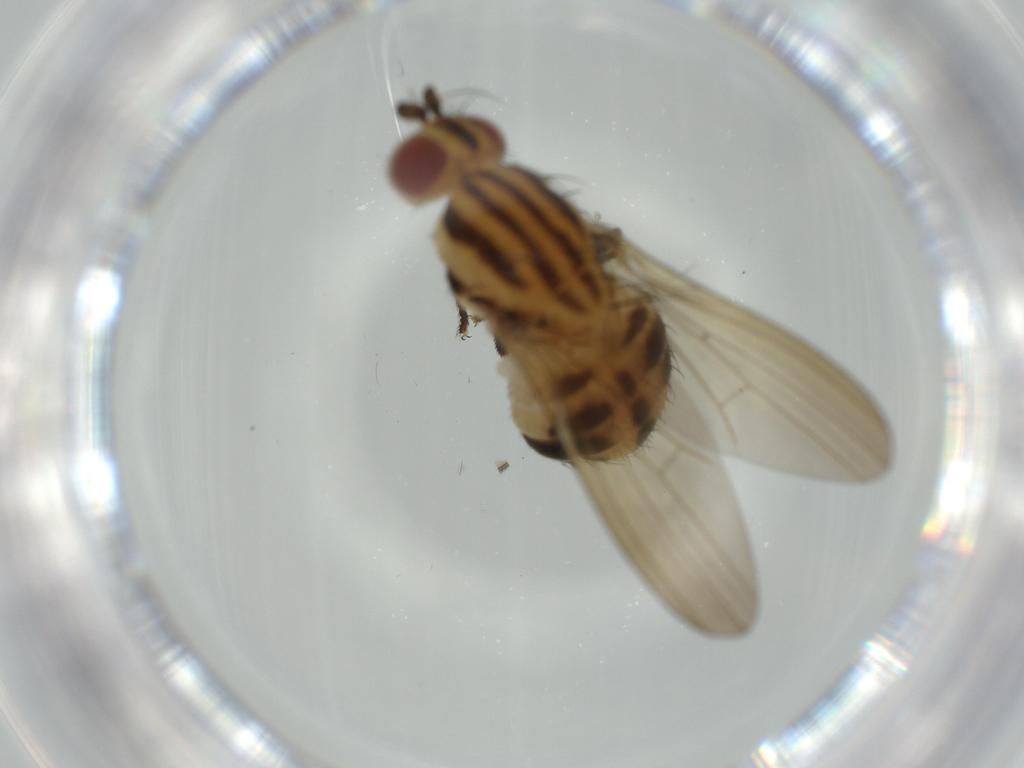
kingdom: Animalia
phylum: Arthropoda
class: Insecta
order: Diptera
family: Lauxaniidae
